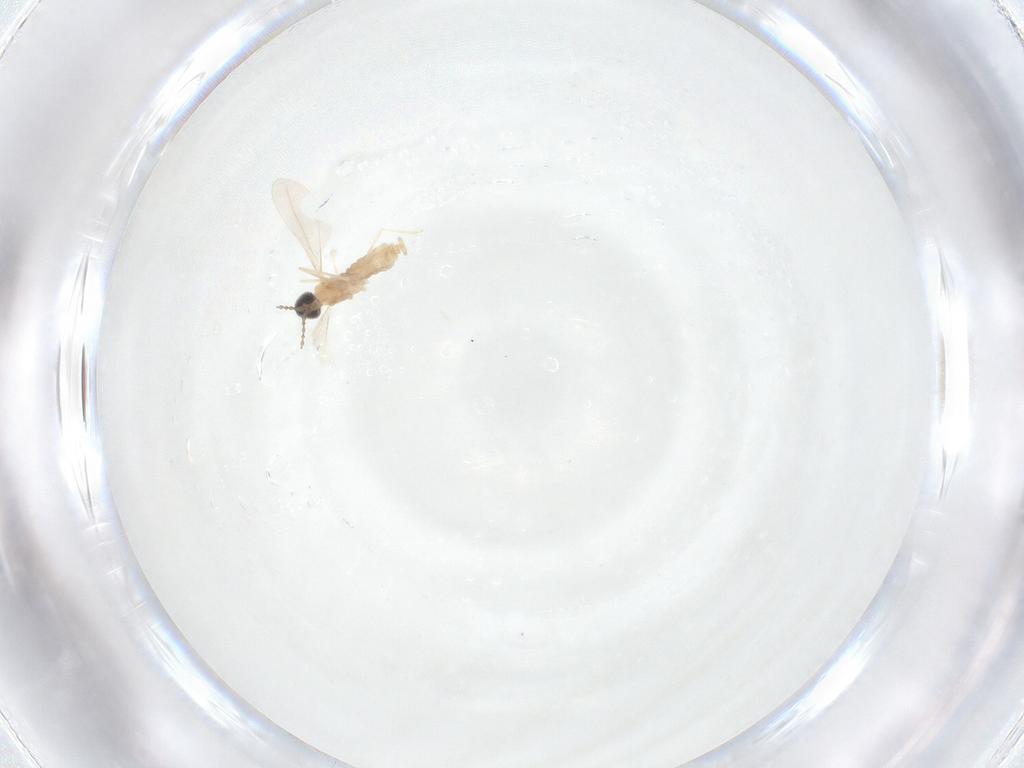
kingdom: Animalia
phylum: Arthropoda
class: Insecta
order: Diptera
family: Cecidomyiidae
